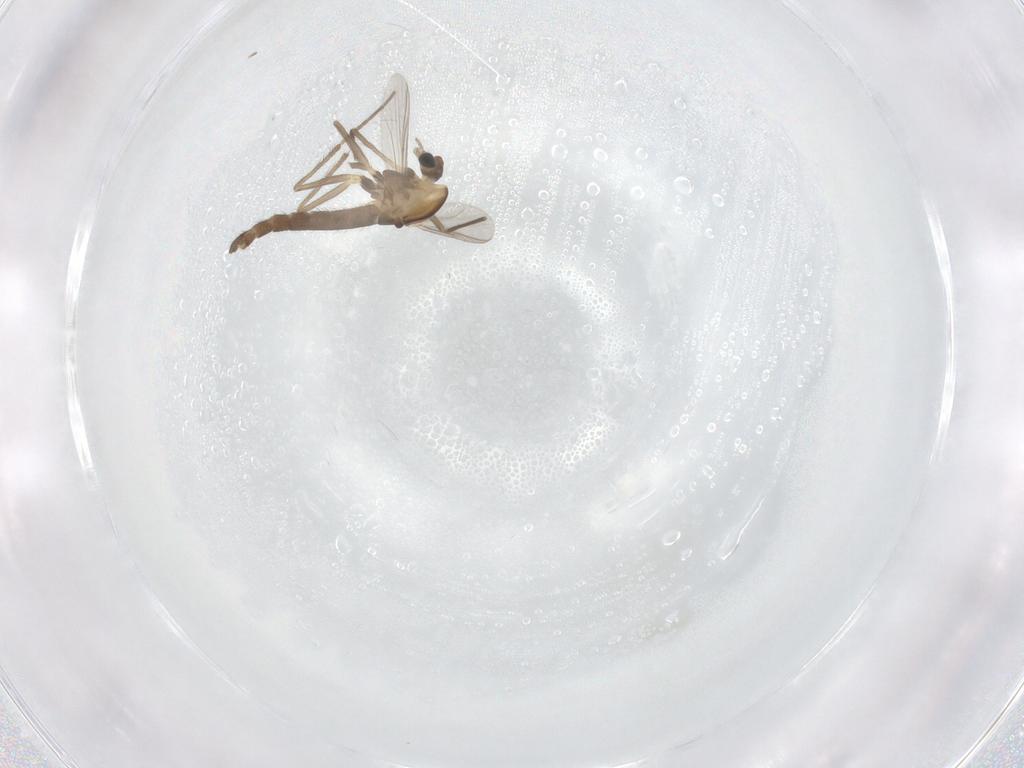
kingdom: Animalia
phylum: Arthropoda
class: Insecta
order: Diptera
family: Chironomidae
